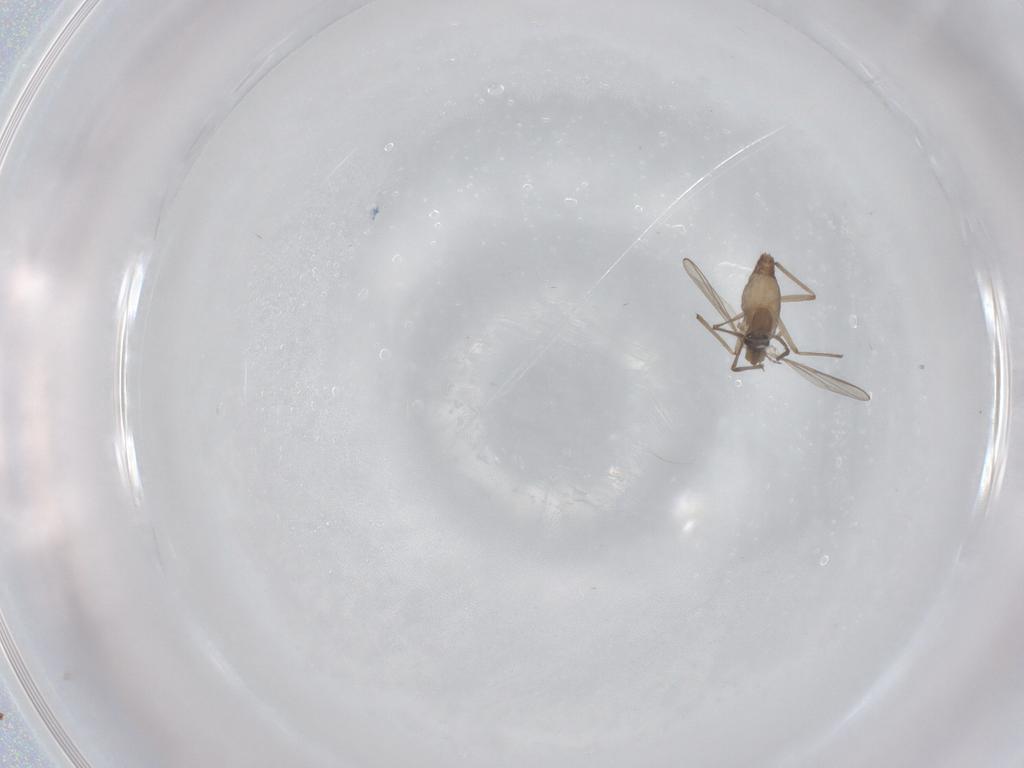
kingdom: Animalia
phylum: Arthropoda
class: Insecta
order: Diptera
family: Chironomidae
